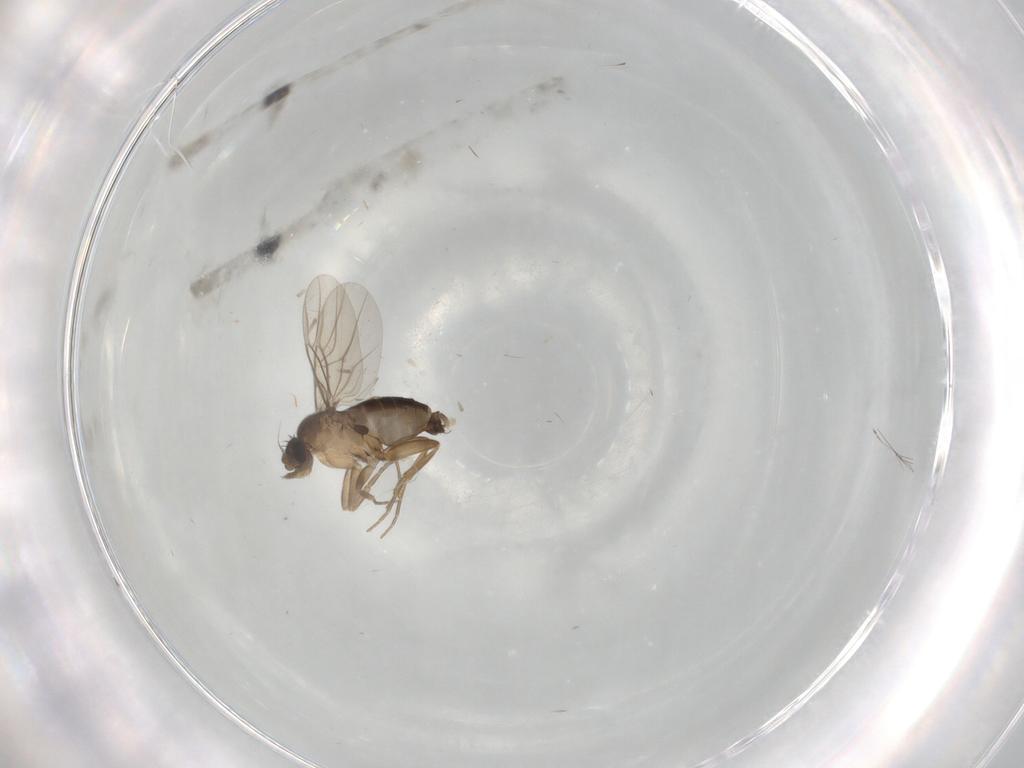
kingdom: Animalia
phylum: Arthropoda
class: Insecta
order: Diptera
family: Phoridae
